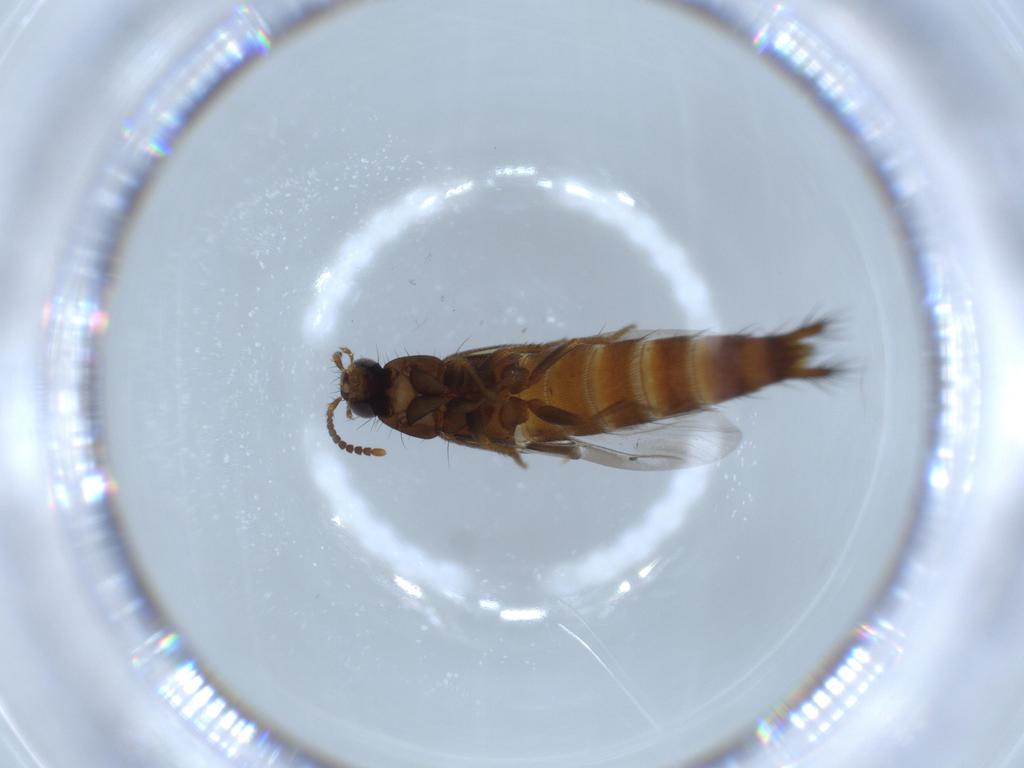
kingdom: Animalia
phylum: Arthropoda
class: Insecta
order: Coleoptera
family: Staphylinidae
